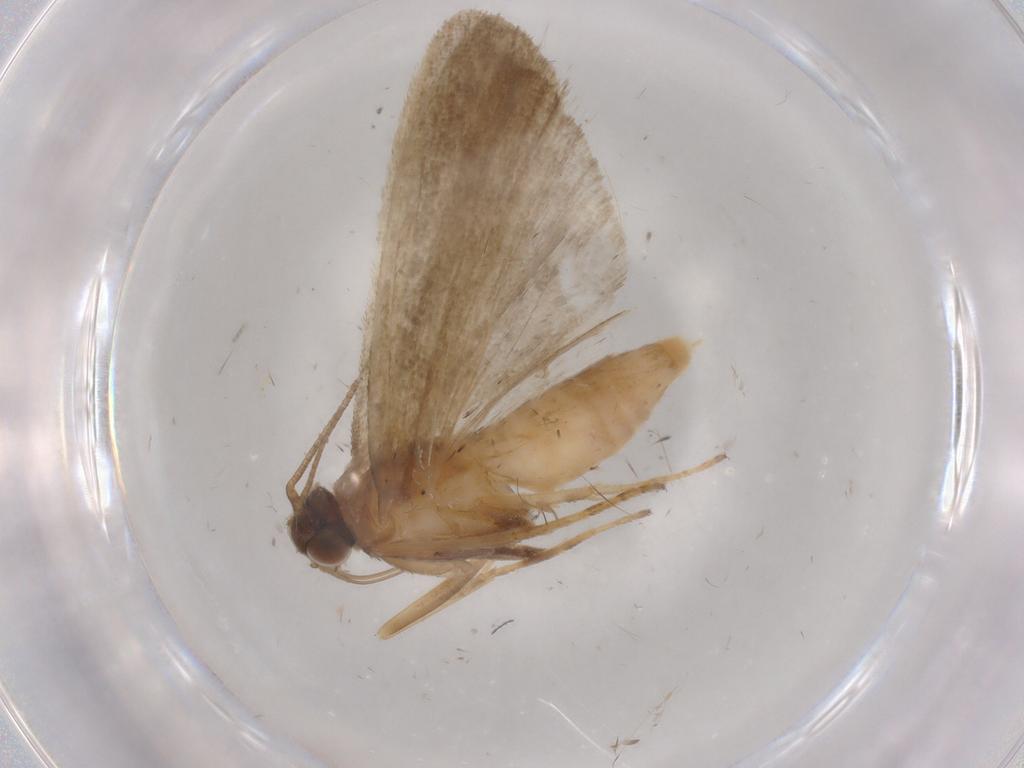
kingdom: Animalia
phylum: Arthropoda
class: Insecta
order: Lepidoptera
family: Noctuidae
